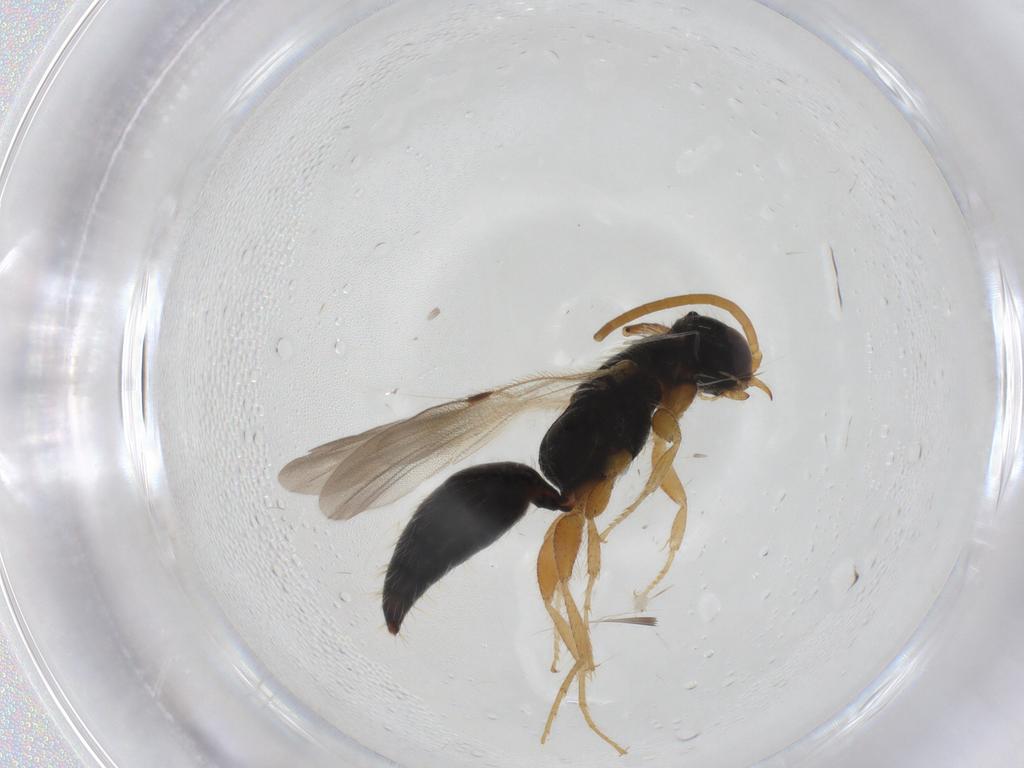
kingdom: Animalia
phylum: Arthropoda
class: Insecta
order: Hymenoptera
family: Bethylidae
